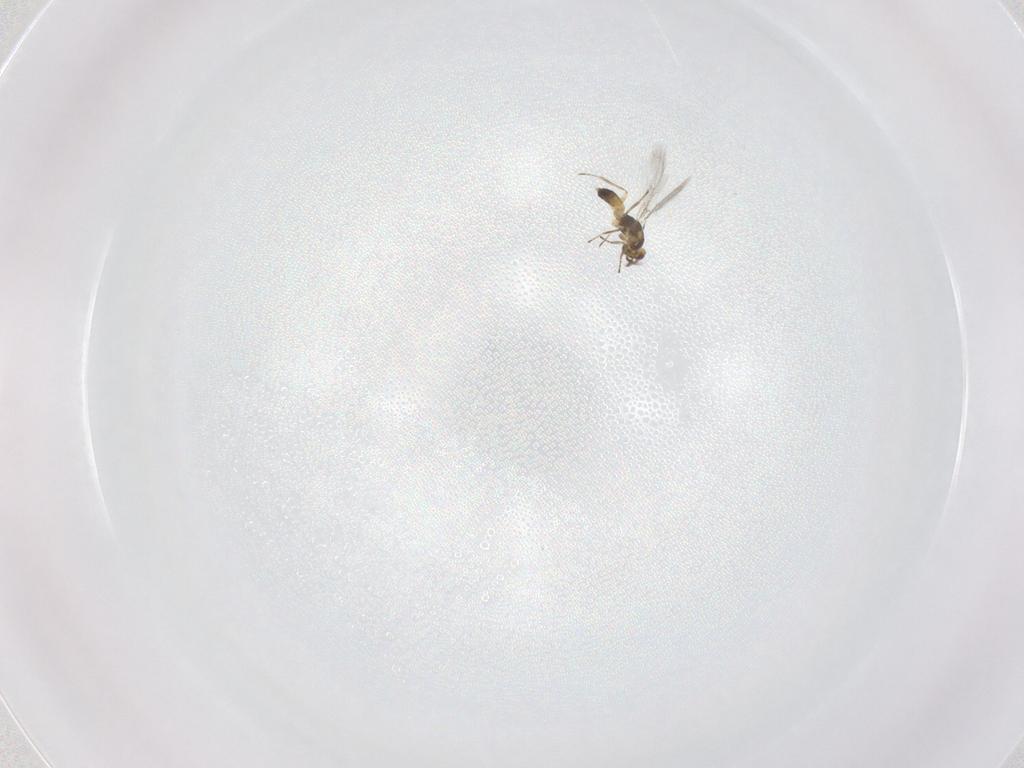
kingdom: Animalia
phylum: Arthropoda
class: Insecta
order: Hymenoptera
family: Eulophidae
